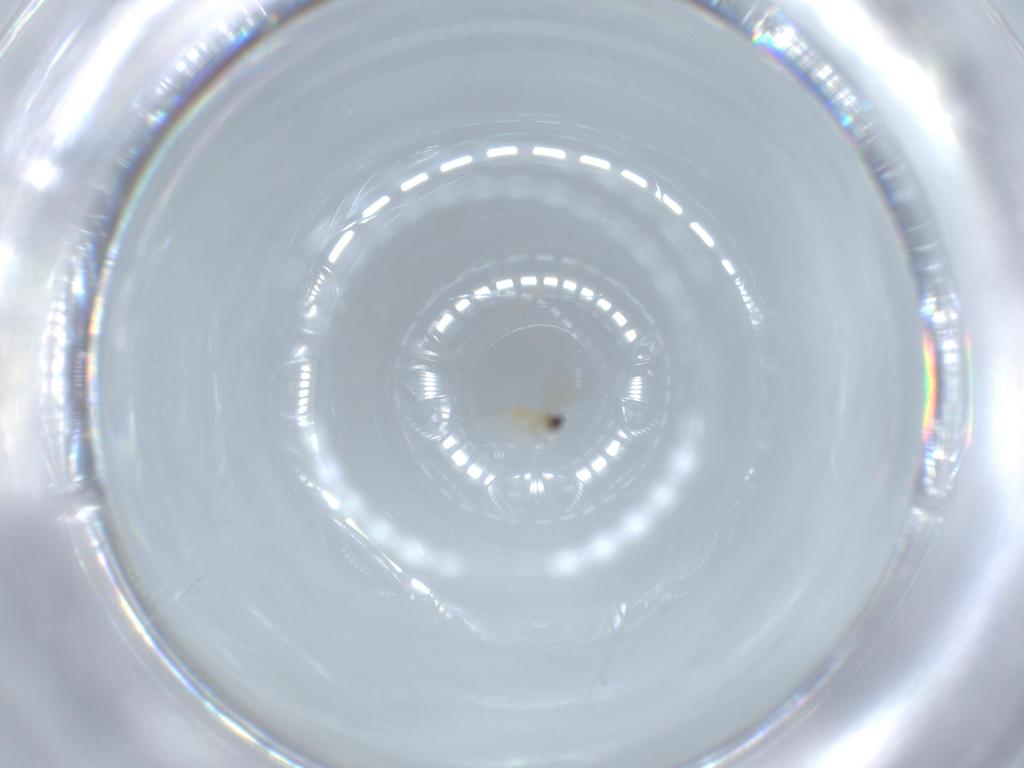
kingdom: Animalia
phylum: Arthropoda
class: Insecta
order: Hymenoptera
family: Aphelinidae
